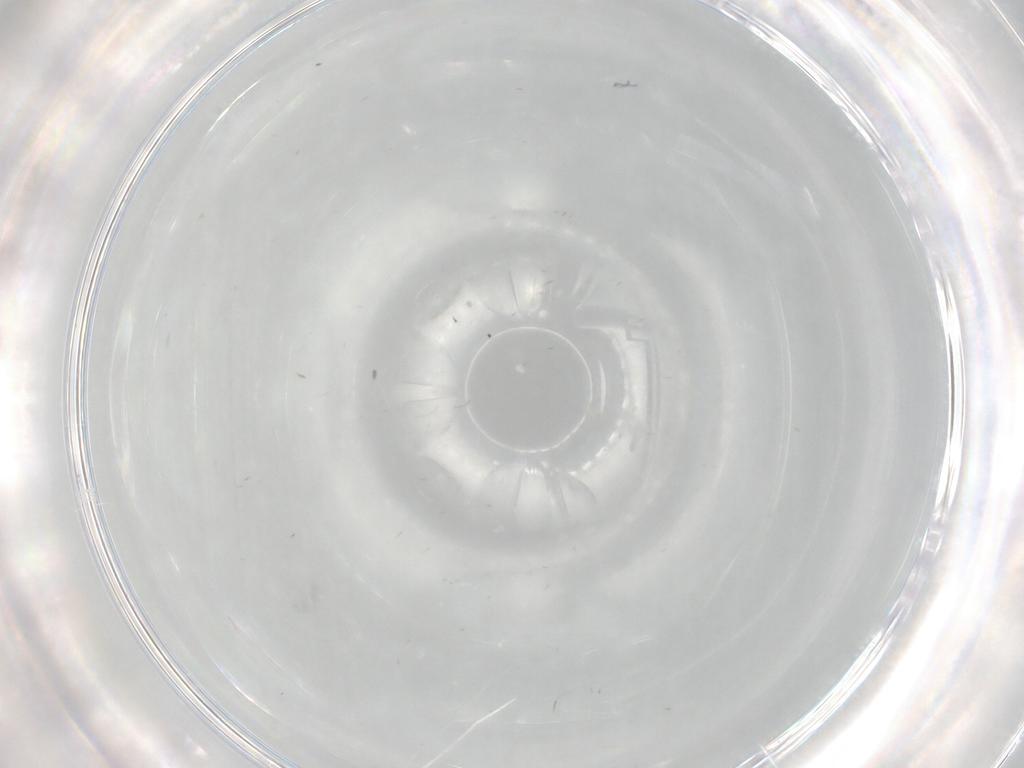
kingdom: Animalia
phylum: Arthropoda
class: Insecta
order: Diptera
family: Ceratopogonidae
